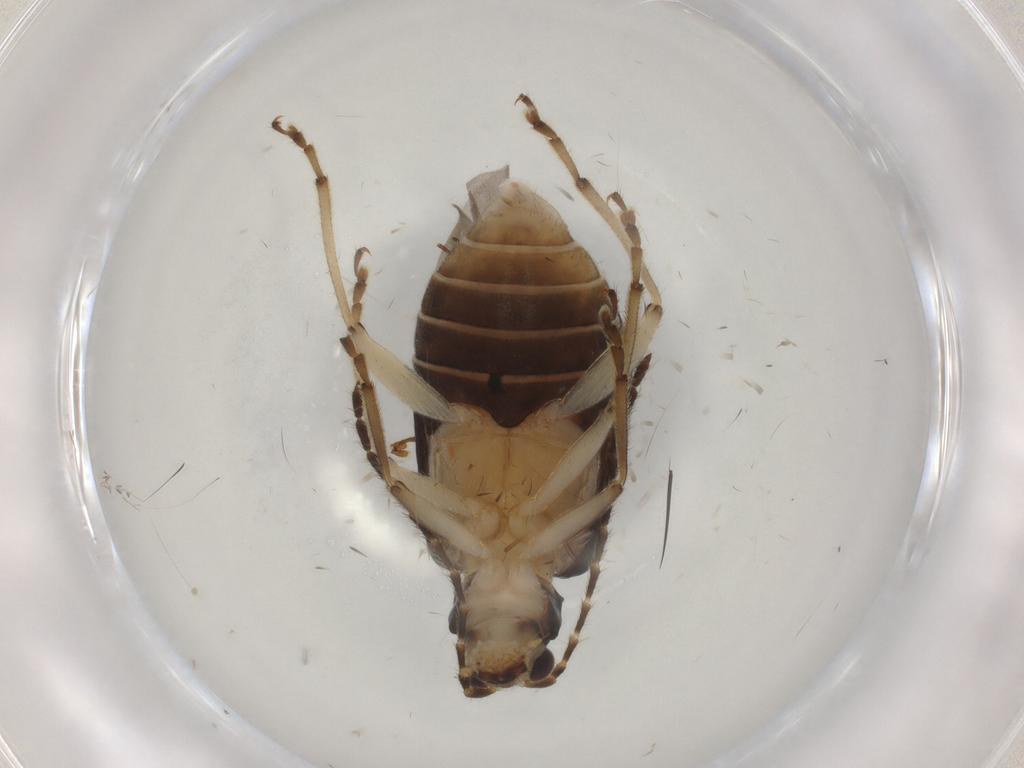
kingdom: Animalia
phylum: Arthropoda
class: Insecta
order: Coleoptera
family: Chrysomelidae
